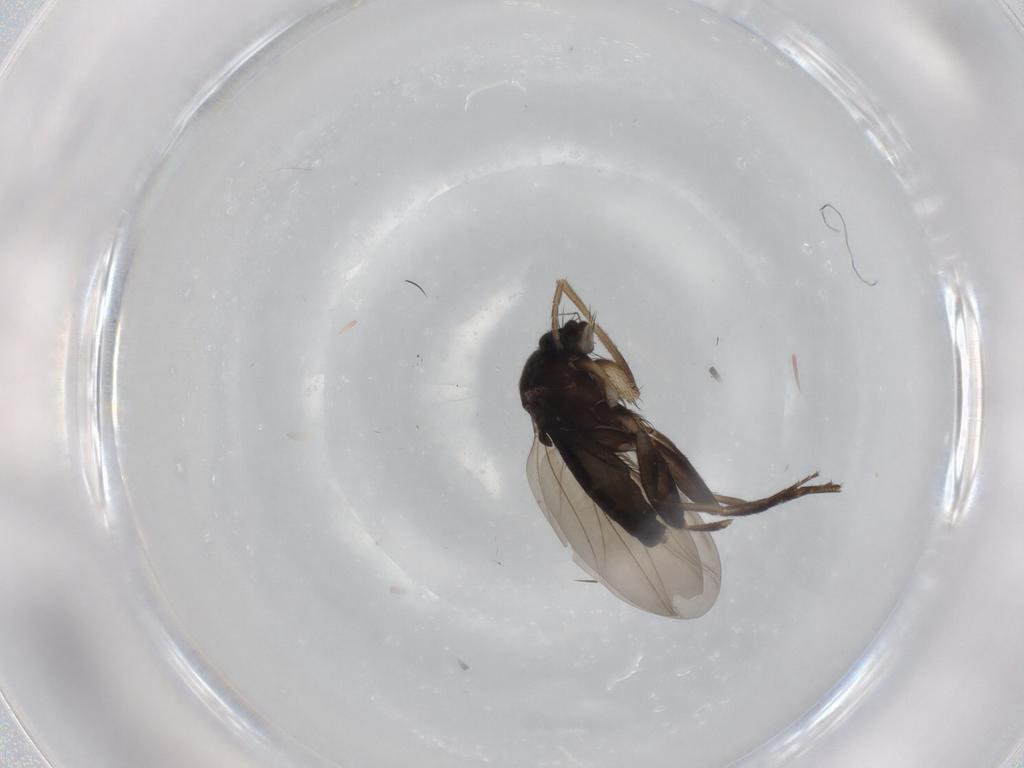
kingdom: Animalia
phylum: Arthropoda
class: Insecta
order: Diptera
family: Phoridae
